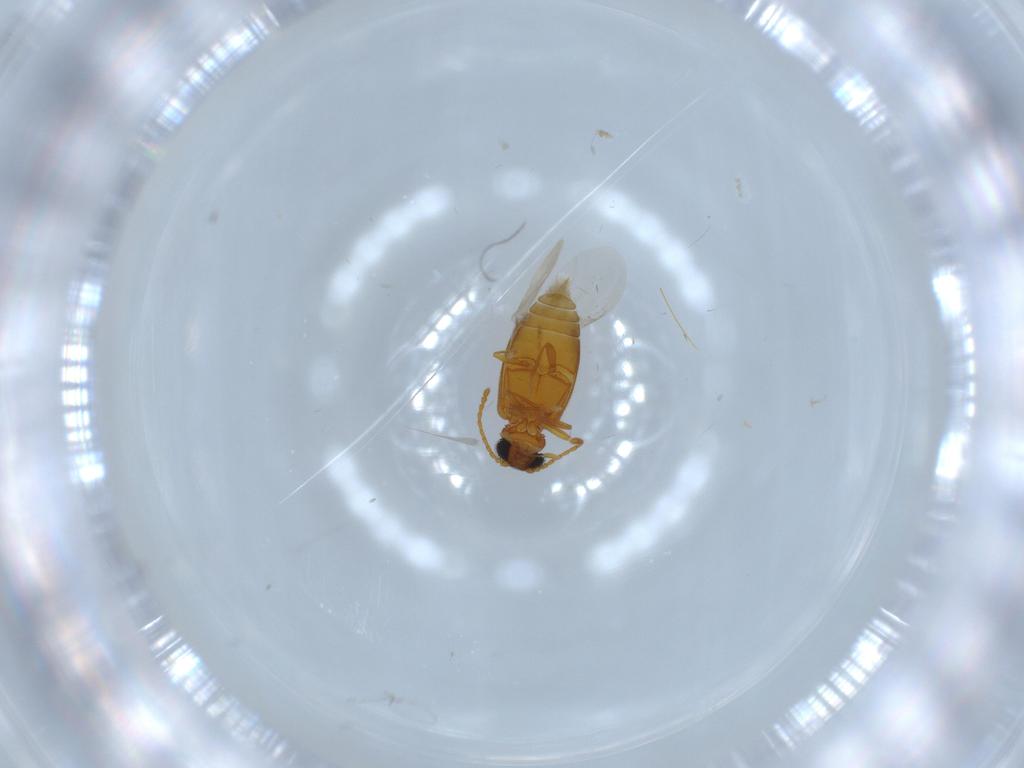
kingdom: Animalia
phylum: Arthropoda
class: Insecta
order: Coleoptera
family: Aderidae
